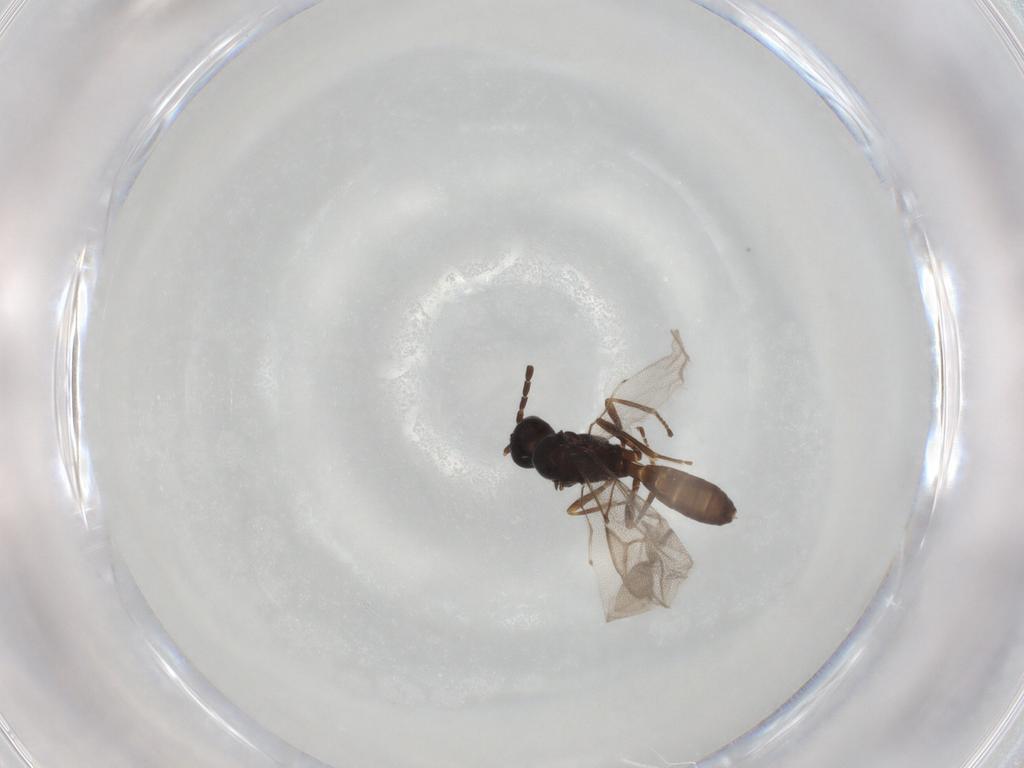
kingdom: Animalia
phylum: Arthropoda
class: Insecta
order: Hymenoptera
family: Braconidae
